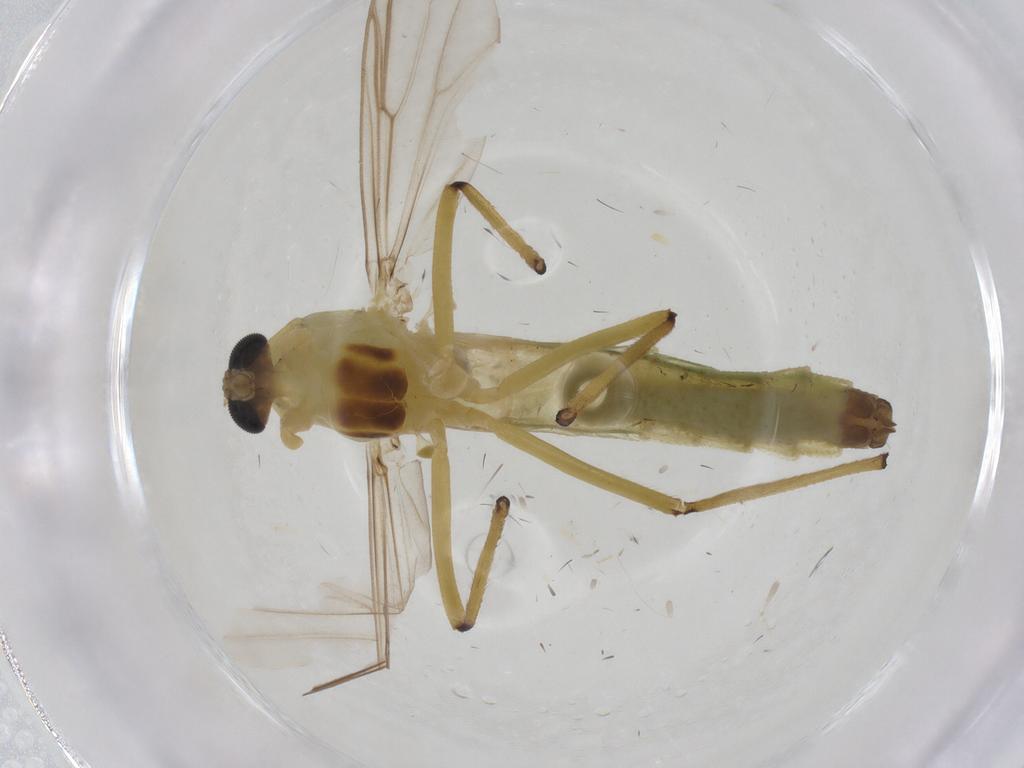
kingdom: Animalia
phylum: Arthropoda
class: Insecta
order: Diptera
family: Chironomidae
